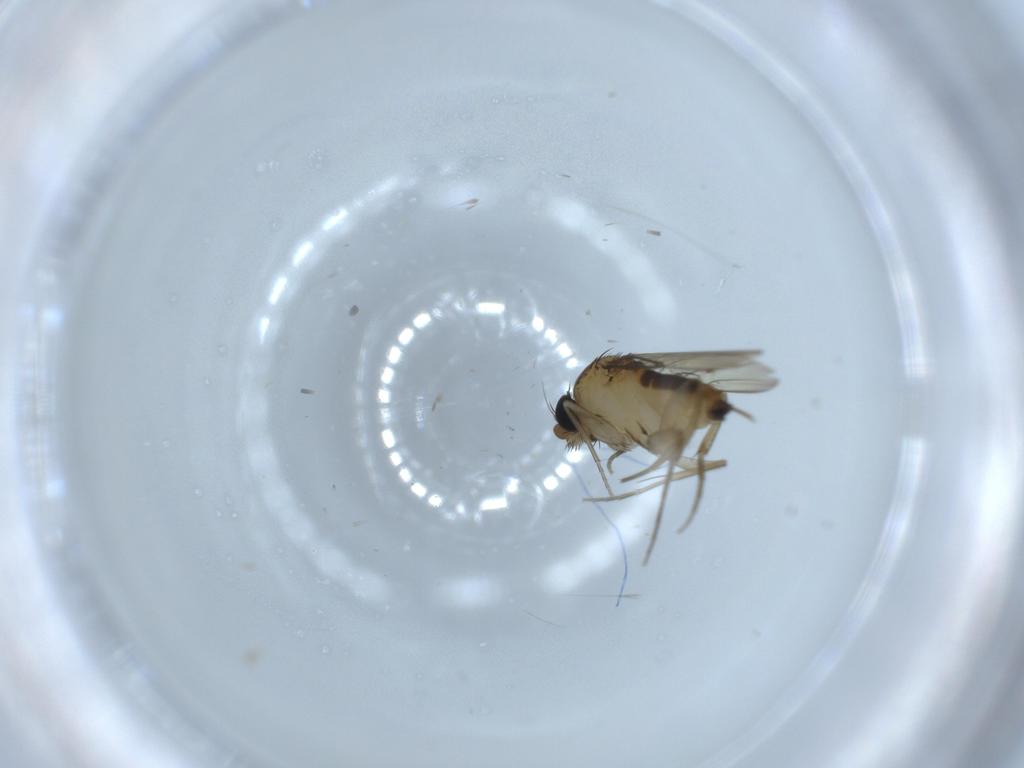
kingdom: Animalia
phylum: Arthropoda
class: Insecta
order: Diptera
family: Phoridae
